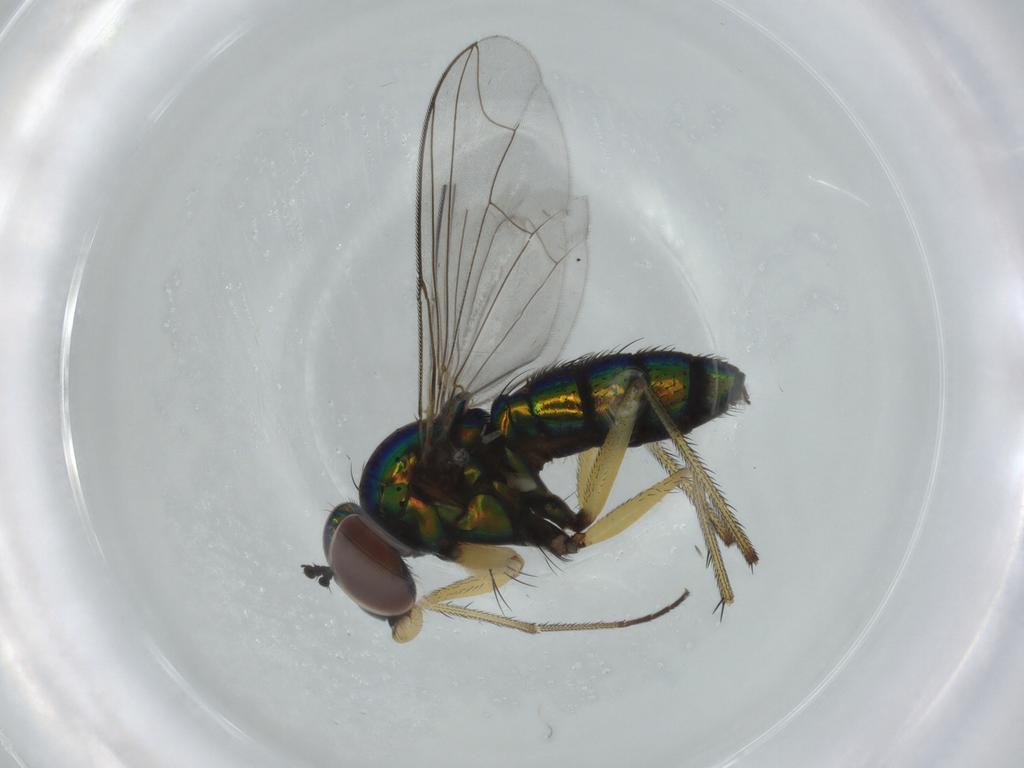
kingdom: Animalia
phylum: Arthropoda
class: Insecta
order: Diptera
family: Dolichopodidae
